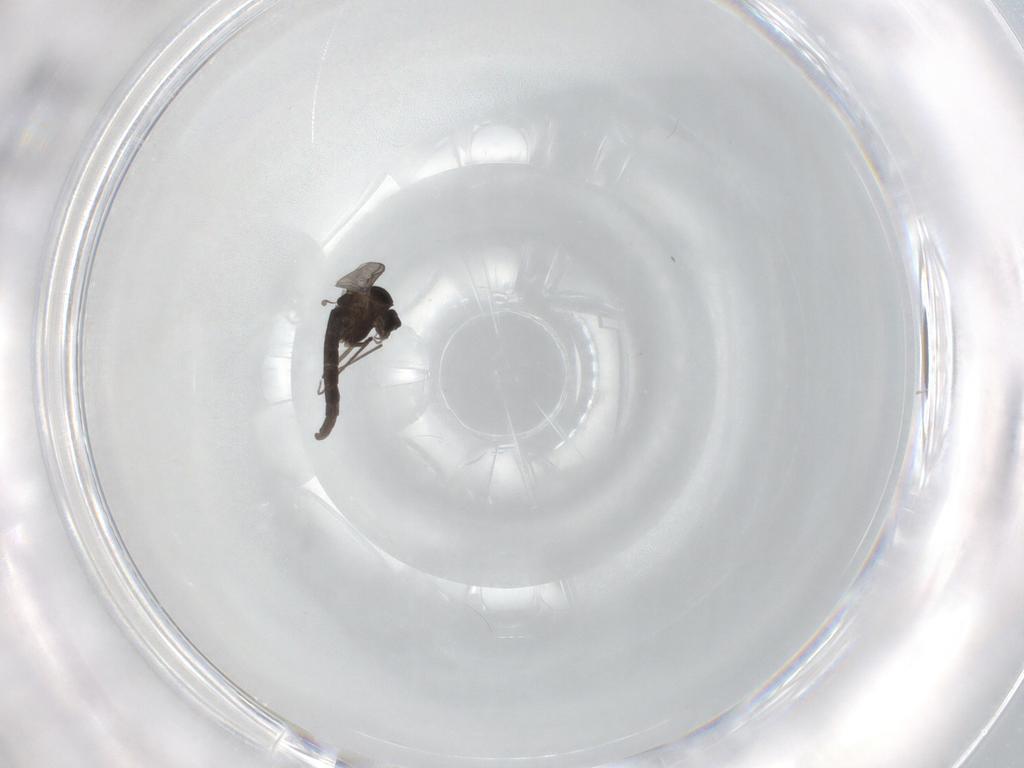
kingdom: Animalia
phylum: Arthropoda
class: Insecta
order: Diptera
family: Chironomidae
